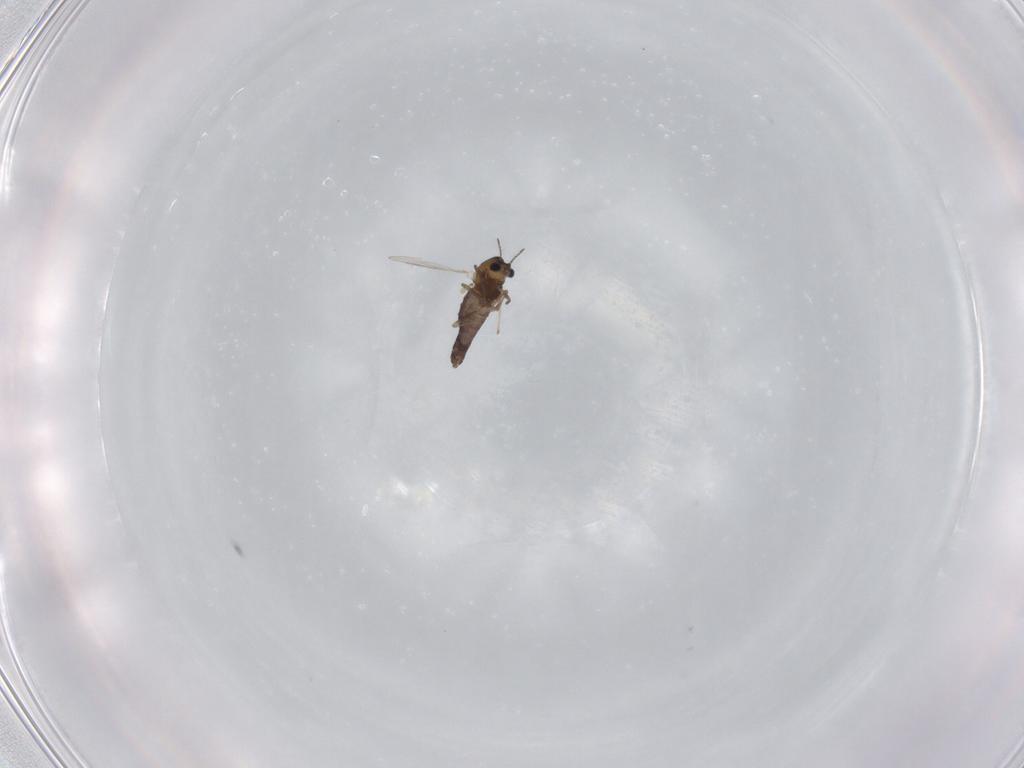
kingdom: Animalia
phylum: Arthropoda
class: Insecta
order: Diptera
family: Chironomidae
